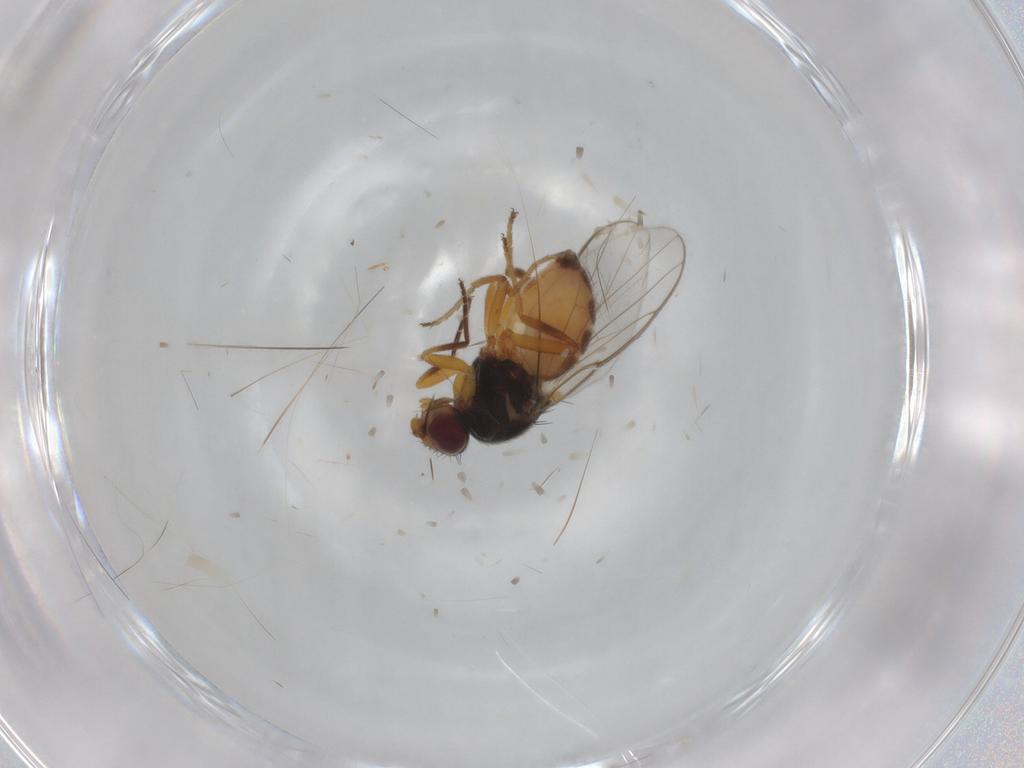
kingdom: Animalia
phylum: Arthropoda
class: Insecta
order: Diptera
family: Chloropidae
